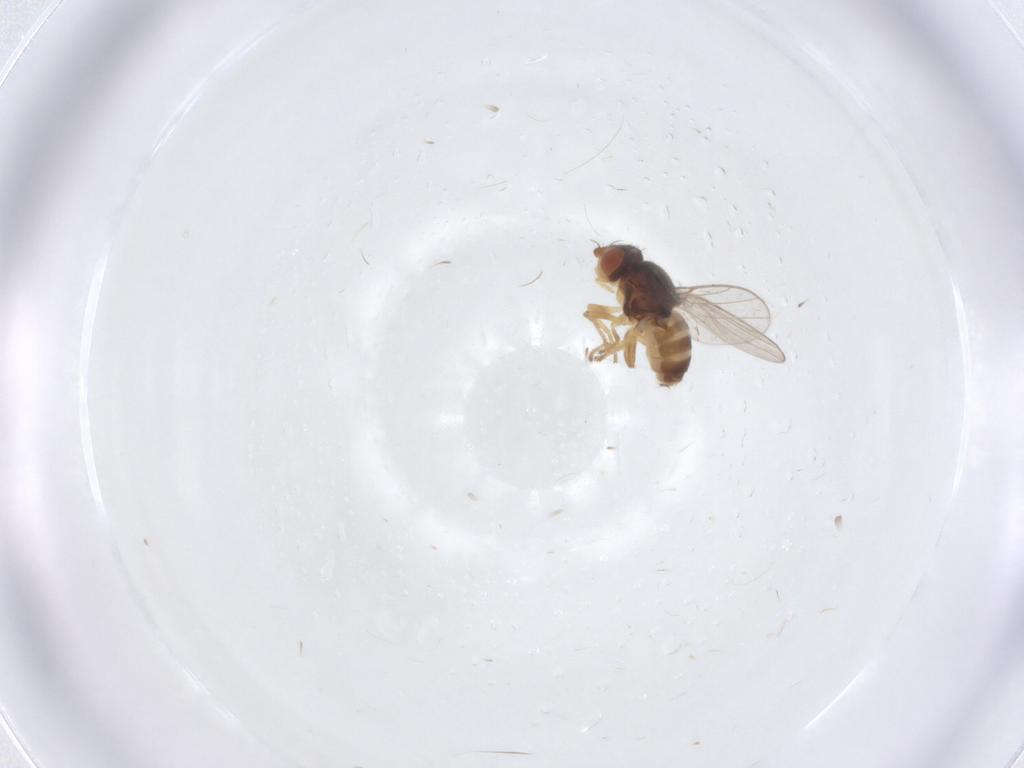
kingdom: Animalia
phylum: Arthropoda
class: Insecta
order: Diptera
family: Chloropidae
